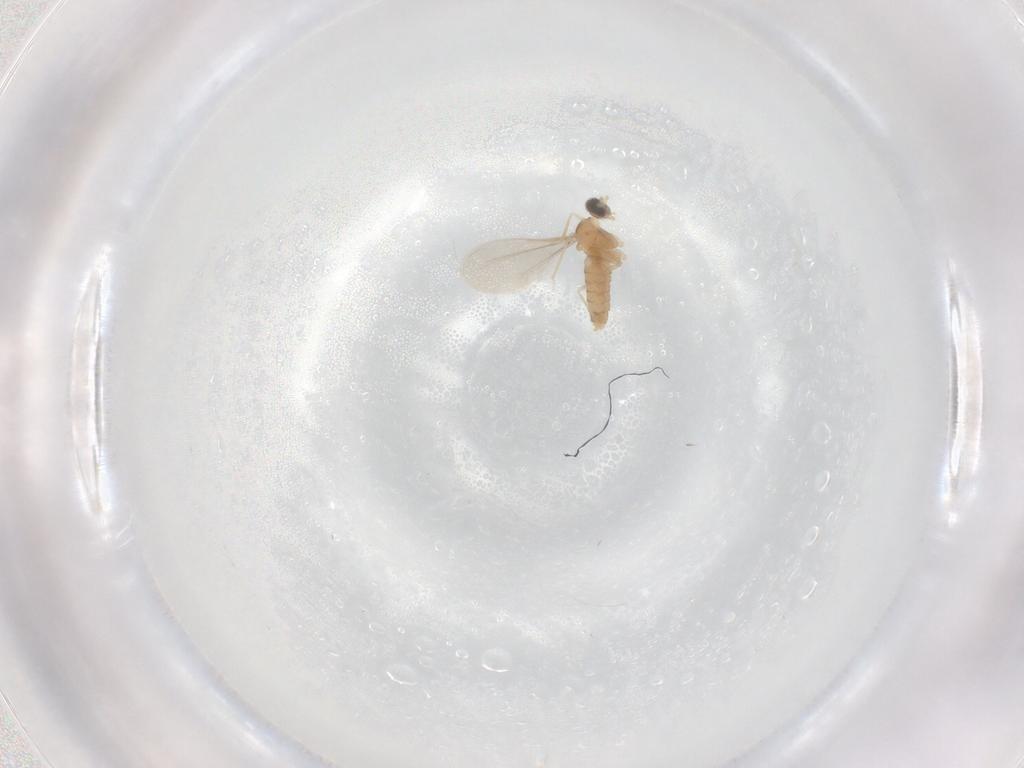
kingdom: Animalia
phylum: Arthropoda
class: Insecta
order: Diptera
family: Cecidomyiidae
